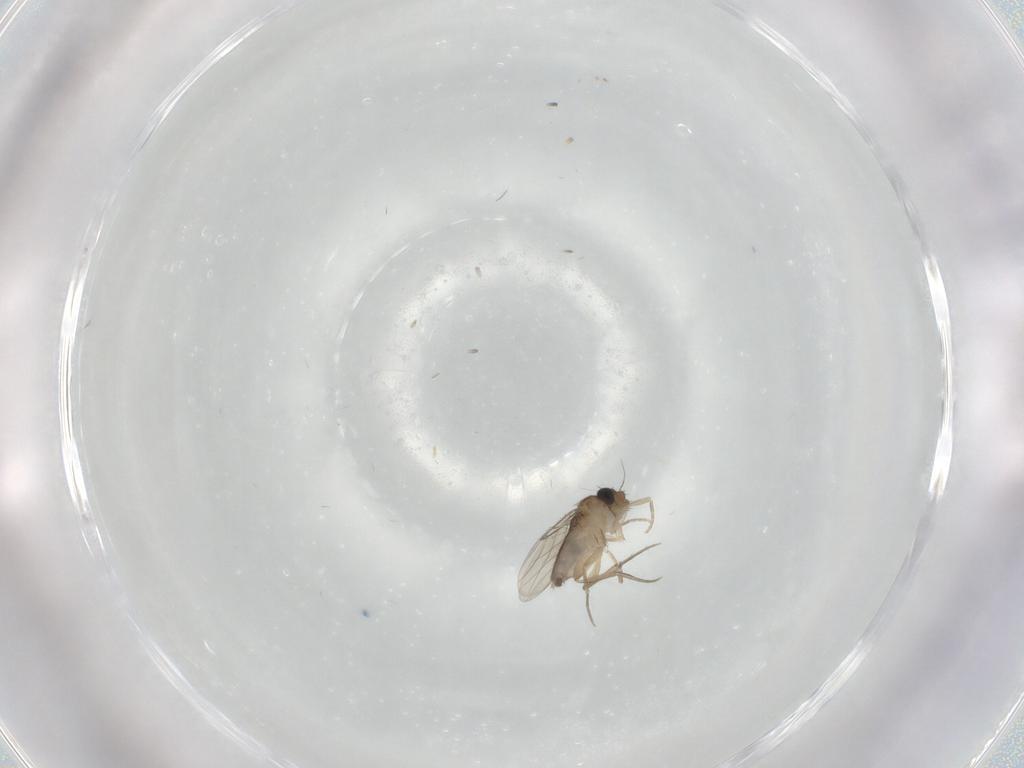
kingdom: Animalia
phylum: Arthropoda
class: Insecta
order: Diptera
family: Phoridae
